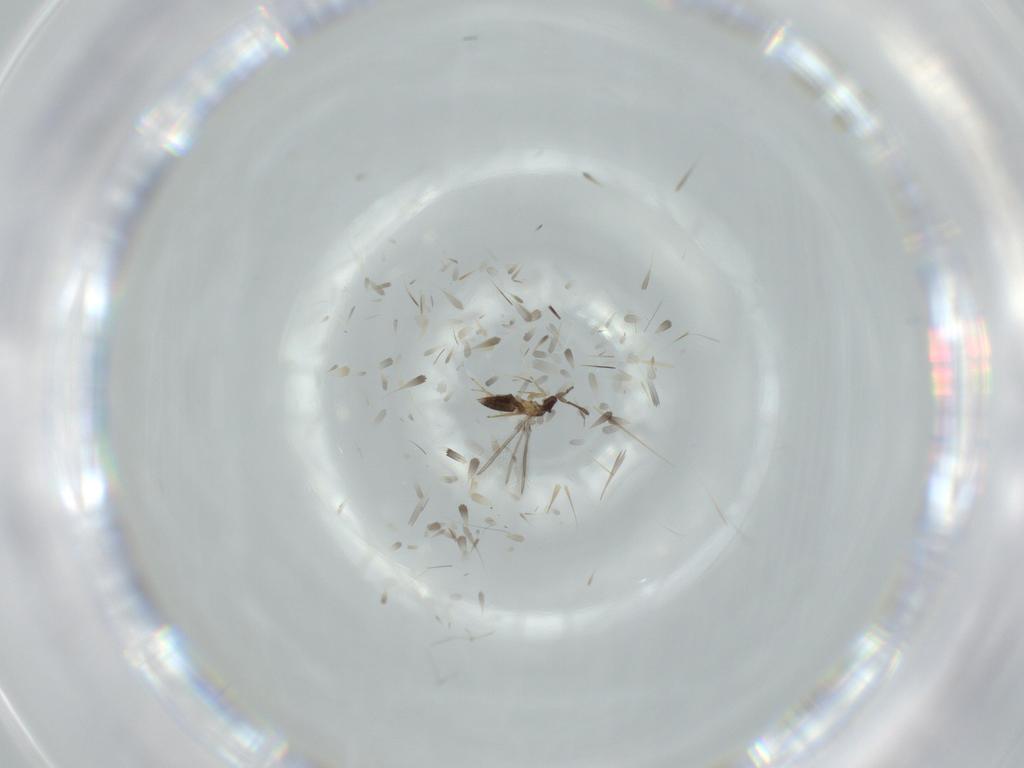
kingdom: Animalia
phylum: Arthropoda
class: Insecta
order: Hymenoptera
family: Mymaridae
